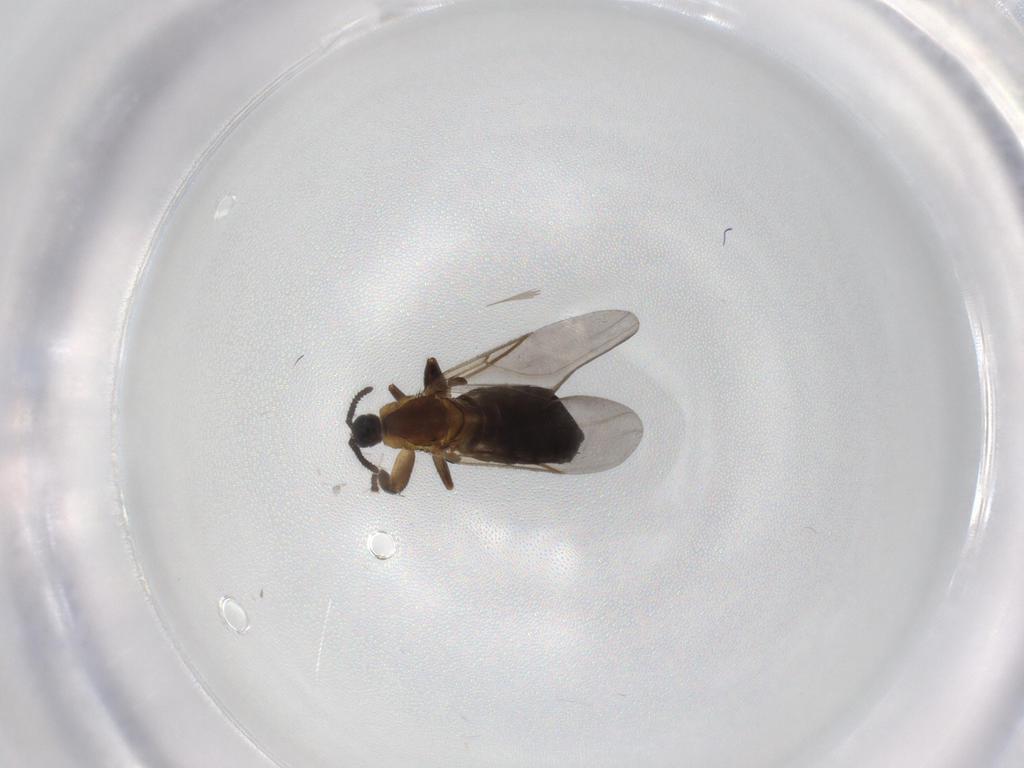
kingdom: Animalia
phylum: Arthropoda
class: Insecta
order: Diptera
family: Scatopsidae
